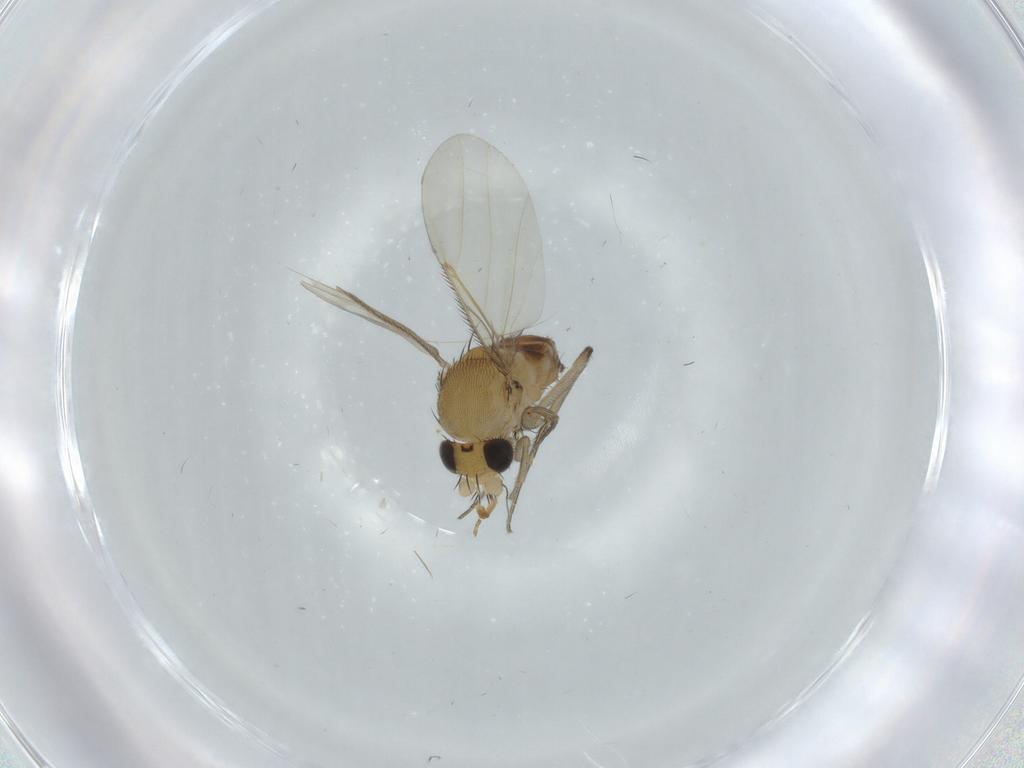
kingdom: Animalia
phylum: Arthropoda
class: Insecta
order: Diptera
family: Phoridae
